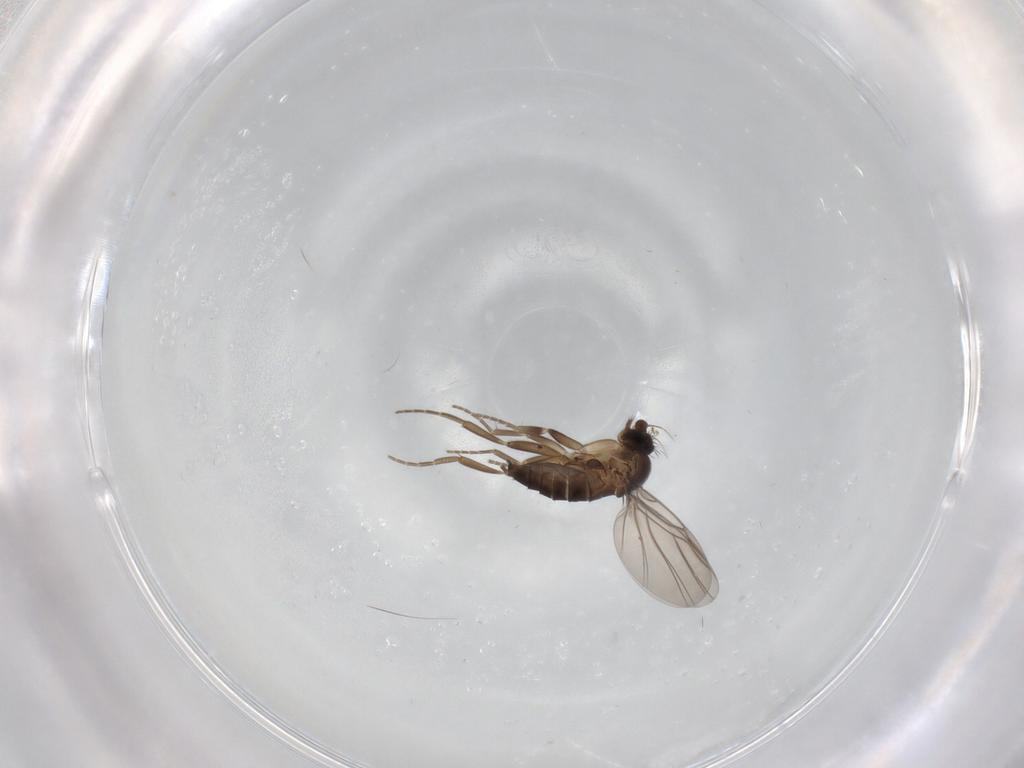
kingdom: Animalia
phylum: Arthropoda
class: Insecta
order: Diptera
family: Phoridae
